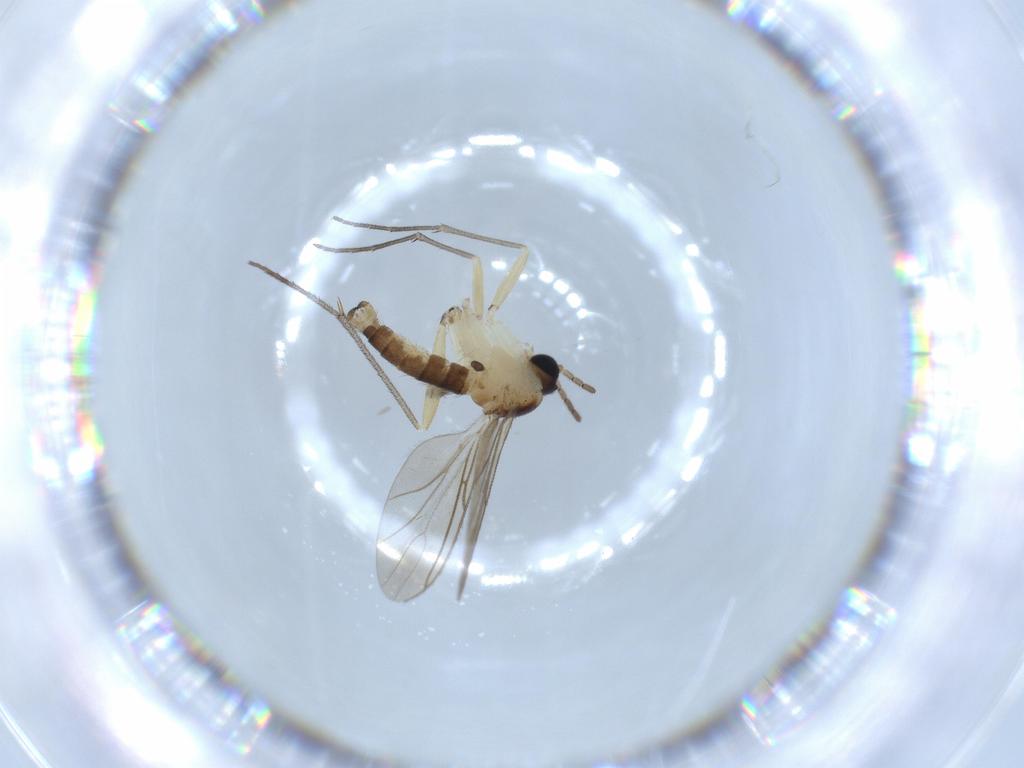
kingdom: Animalia
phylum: Arthropoda
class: Insecta
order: Diptera
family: Sciaridae
